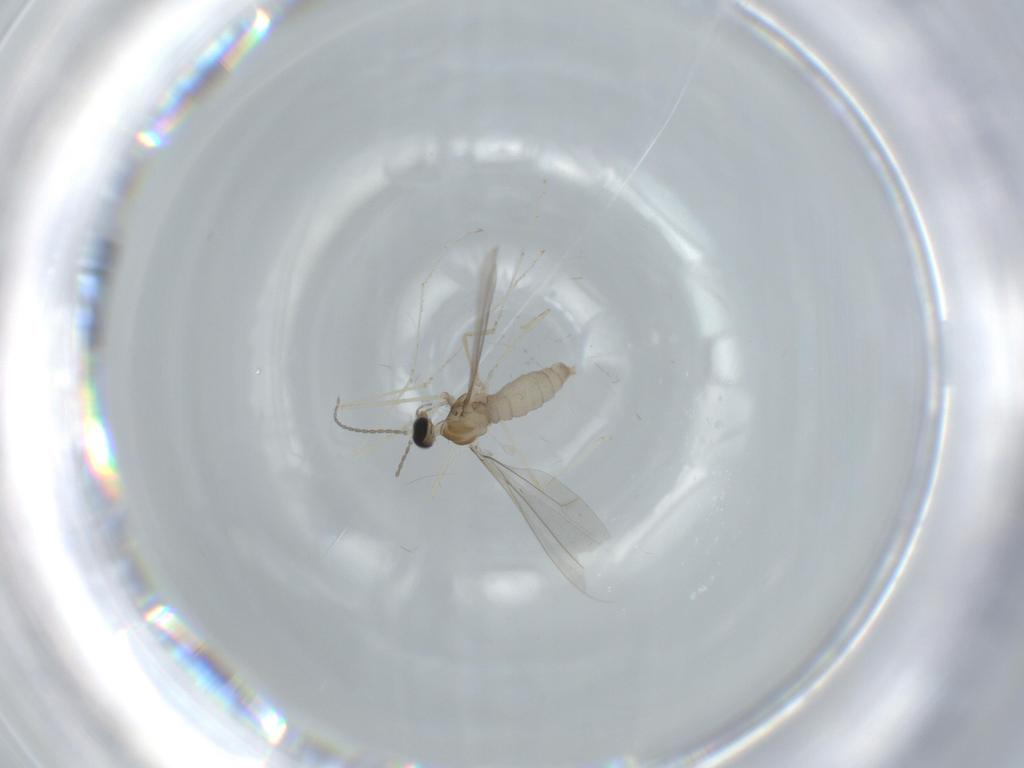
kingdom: Animalia
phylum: Arthropoda
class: Insecta
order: Diptera
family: Cecidomyiidae
